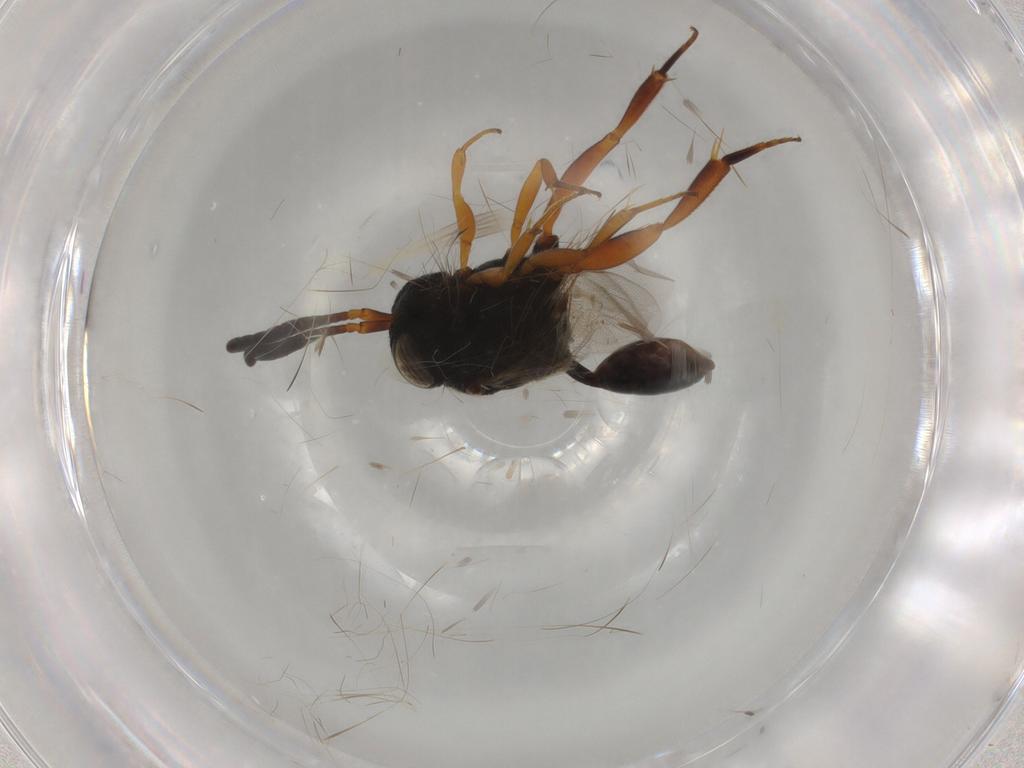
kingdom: Animalia
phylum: Arthropoda
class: Insecta
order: Hymenoptera
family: Evaniidae
